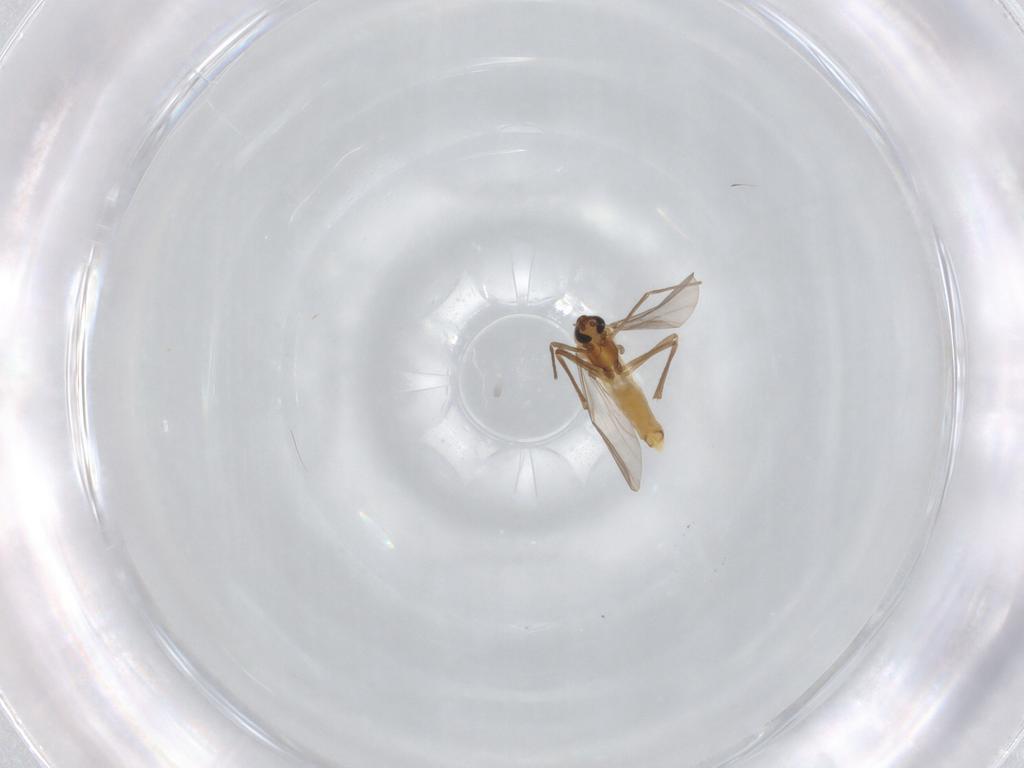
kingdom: Animalia
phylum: Arthropoda
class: Insecta
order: Diptera
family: Chironomidae
